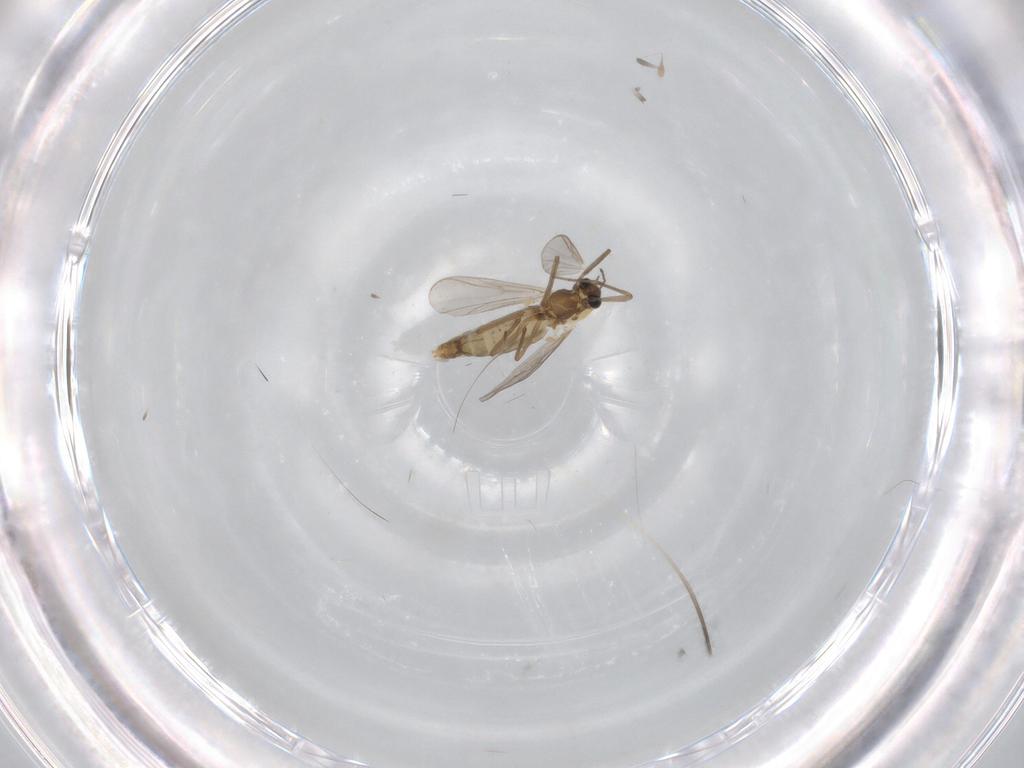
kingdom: Animalia
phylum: Arthropoda
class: Insecta
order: Diptera
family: Chironomidae
